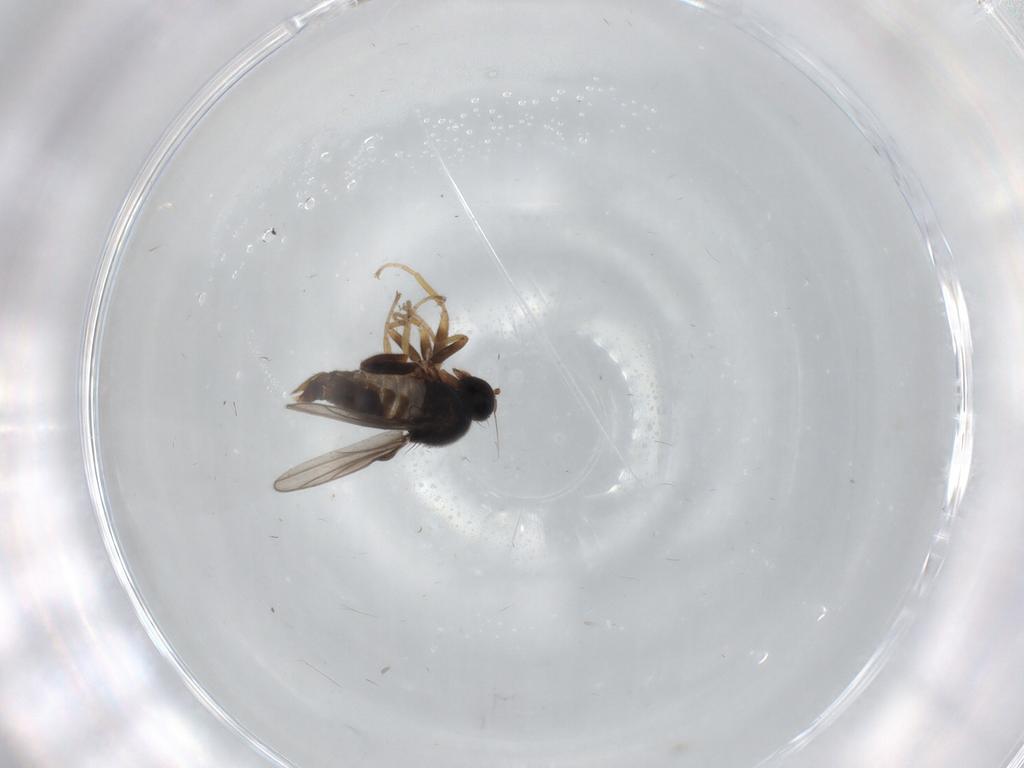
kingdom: Animalia
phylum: Arthropoda
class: Insecta
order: Diptera
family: Hybotidae
